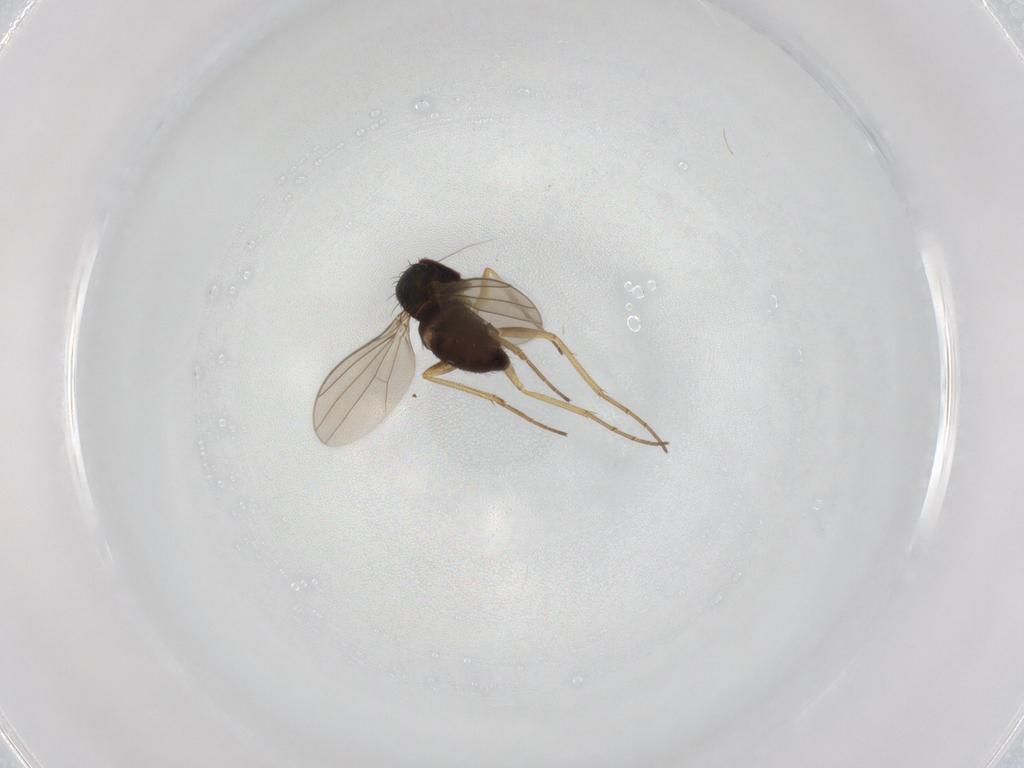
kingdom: Animalia
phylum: Arthropoda
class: Insecta
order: Diptera
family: Dolichopodidae
